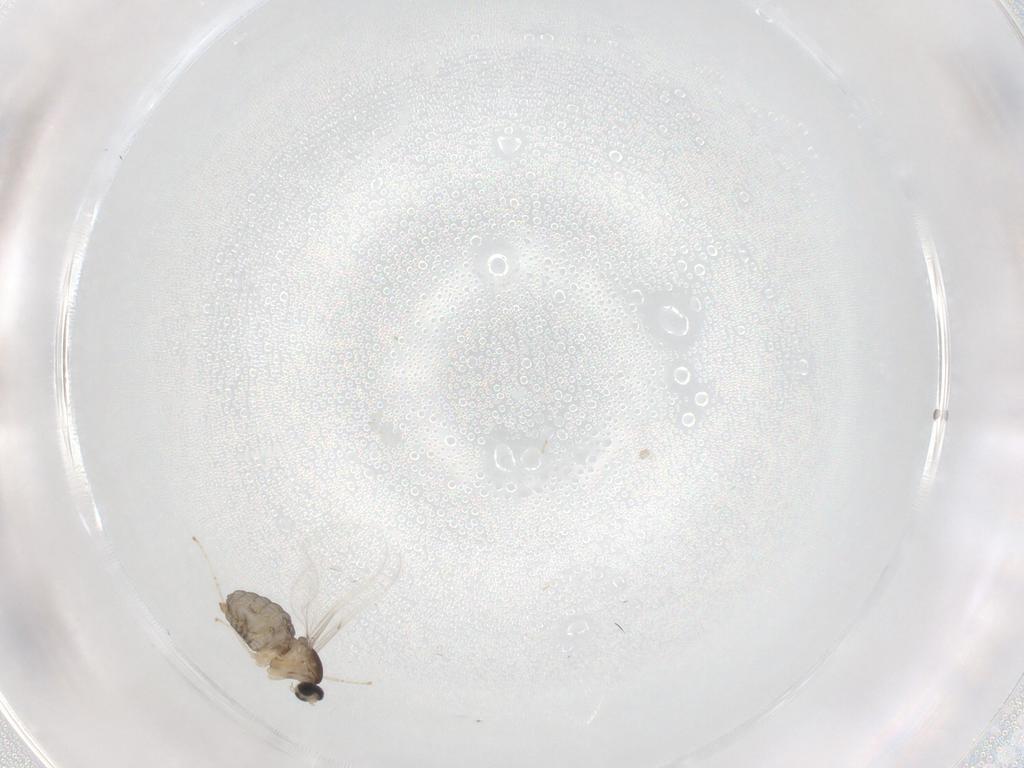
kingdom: Animalia
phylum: Arthropoda
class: Insecta
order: Diptera
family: Cecidomyiidae
